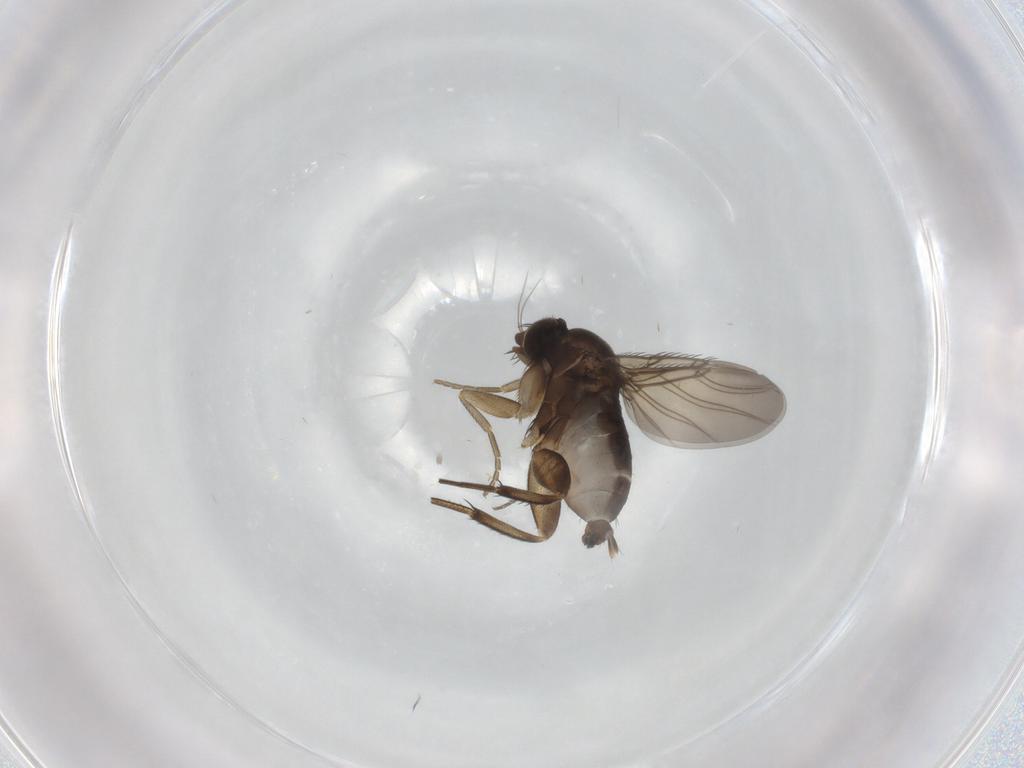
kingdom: Animalia
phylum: Arthropoda
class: Insecta
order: Diptera
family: Phoridae
